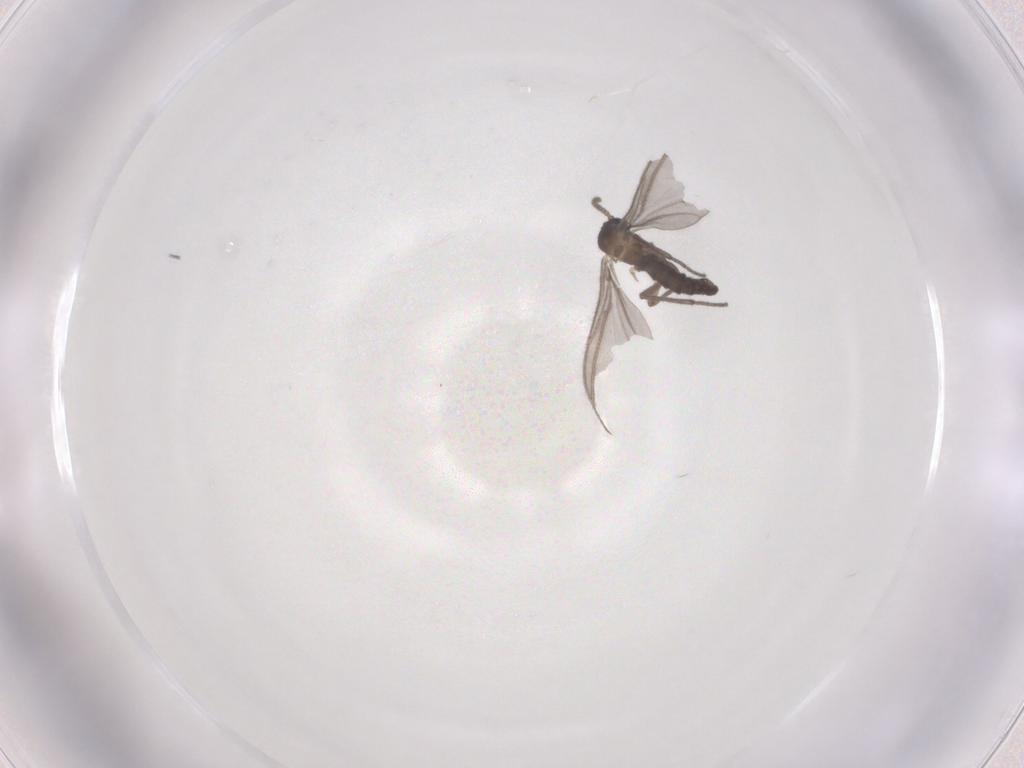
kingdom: Animalia
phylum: Arthropoda
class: Insecta
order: Diptera
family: Sciaridae
